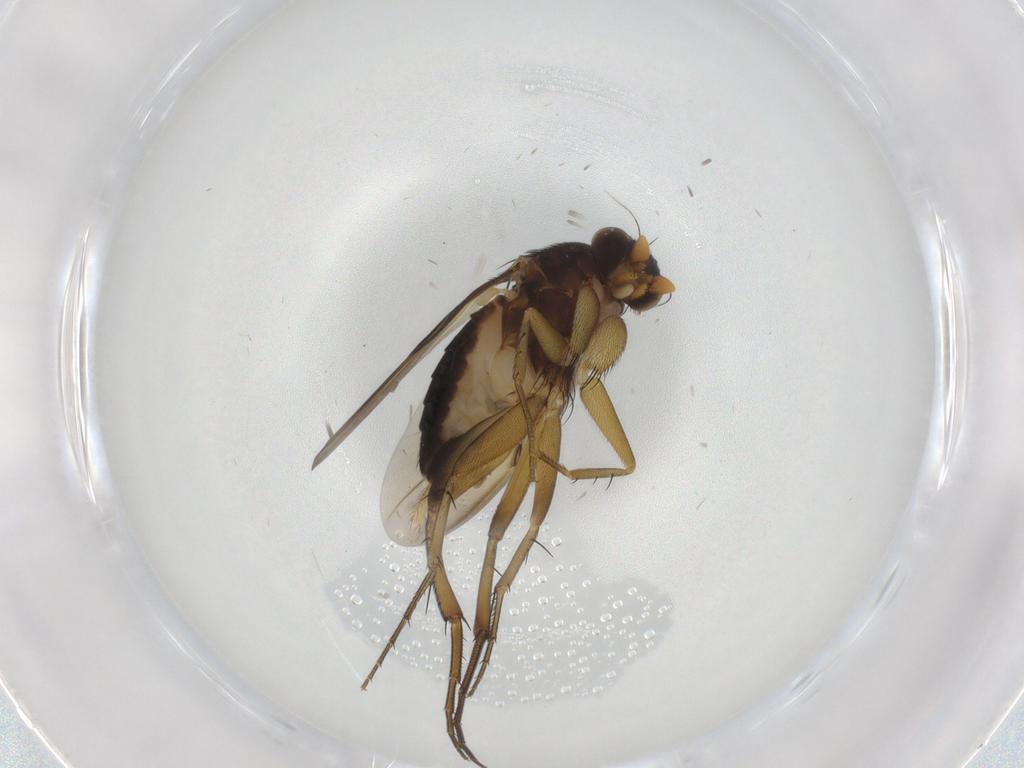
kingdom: Animalia
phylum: Arthropoda
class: Insecta
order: Diptera
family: Phoridae
